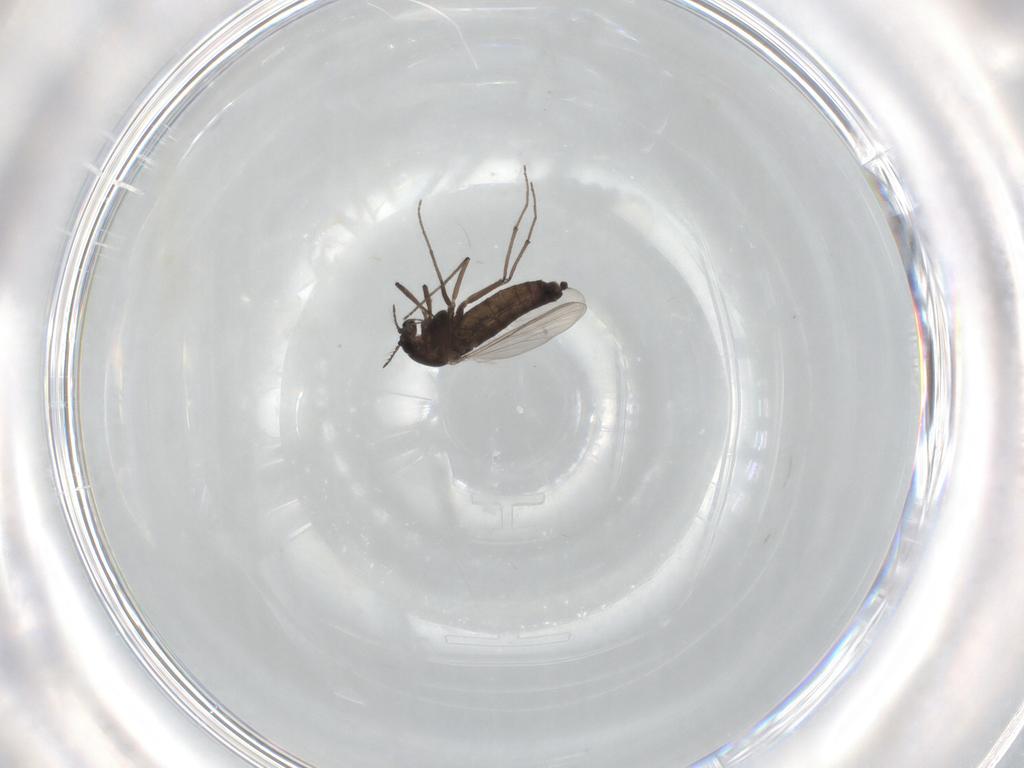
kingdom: Animalia
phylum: Arthropoda
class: Insecta
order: Diptera
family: Chironomidae
